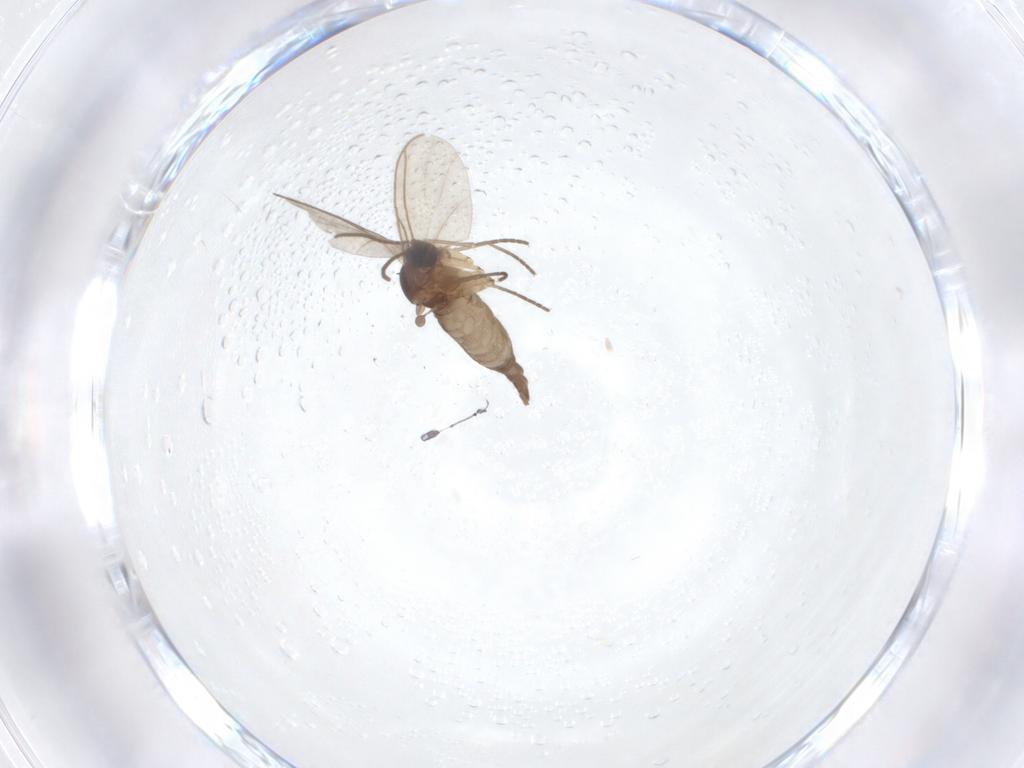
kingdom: Animalia
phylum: Arthropoda
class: Insecta
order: Diptera
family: Sciaridae
